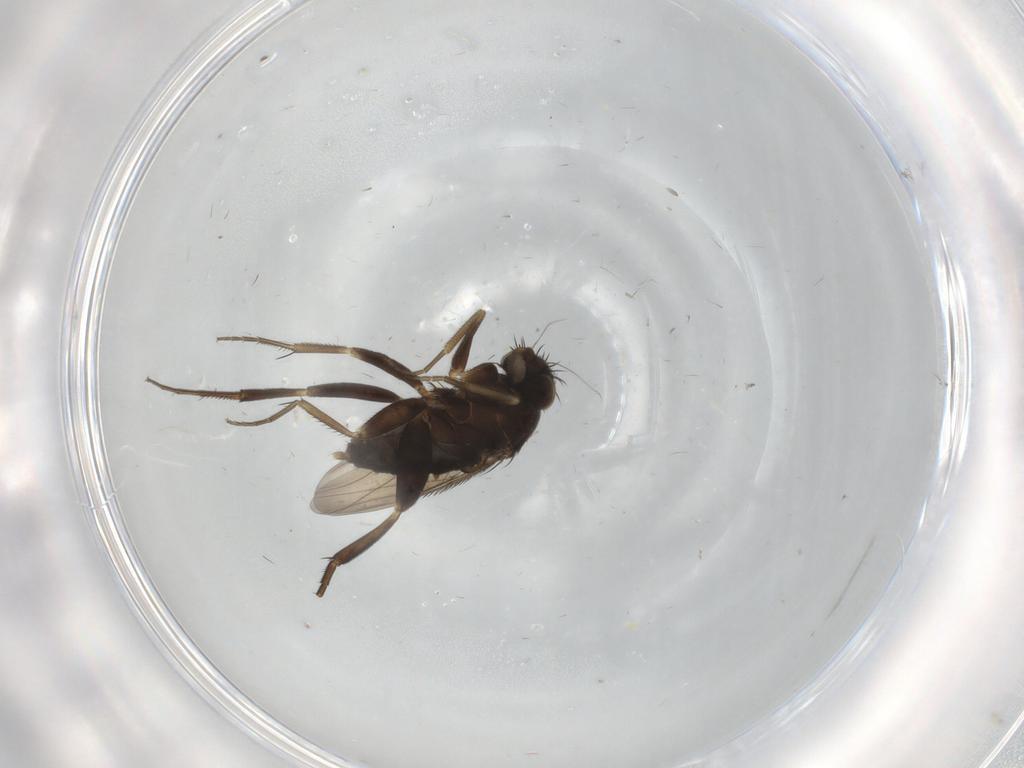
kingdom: Animalia
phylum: Arthropoda
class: Insecta
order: Diptera
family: Phoridae
